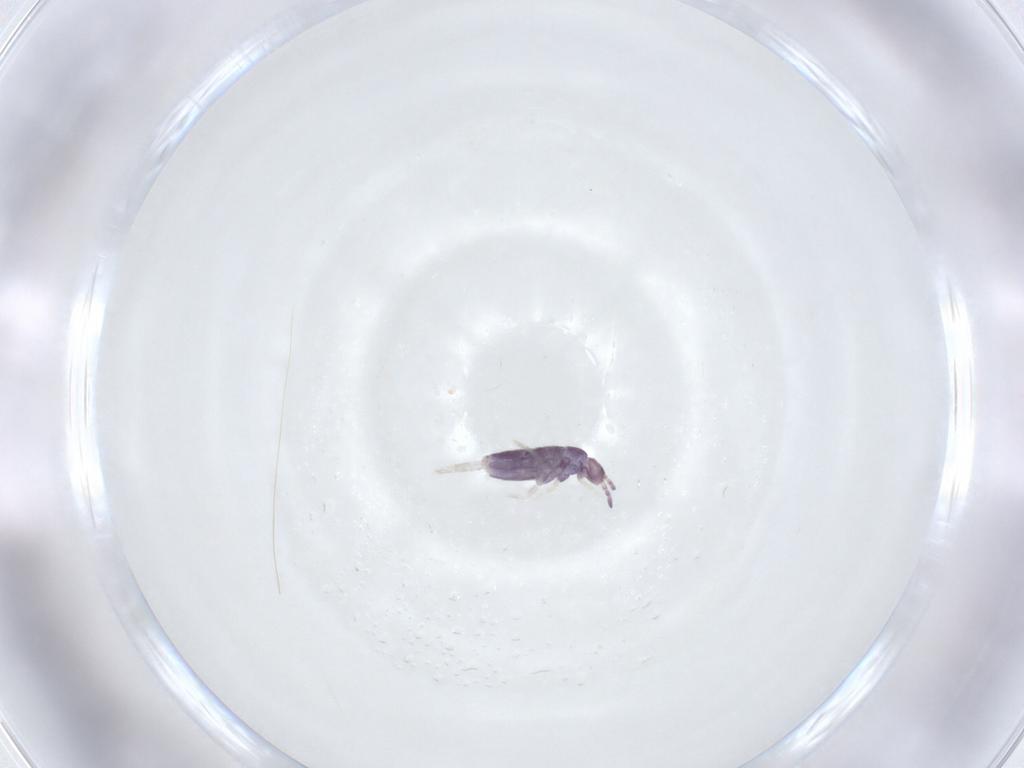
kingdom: Animalia
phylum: Arthropoda
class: Collembola
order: Entomobryomorpha
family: Entomobryidae
